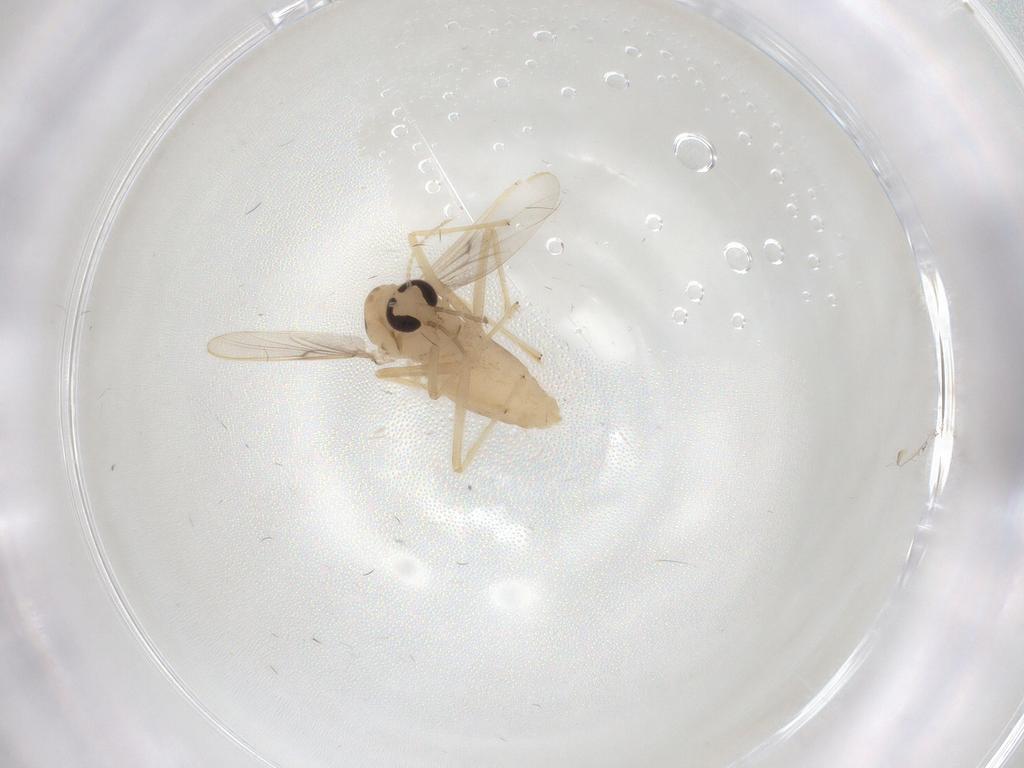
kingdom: Animalia
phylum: Arthropoda
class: Insecta
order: Diptera
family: Chironomidae
